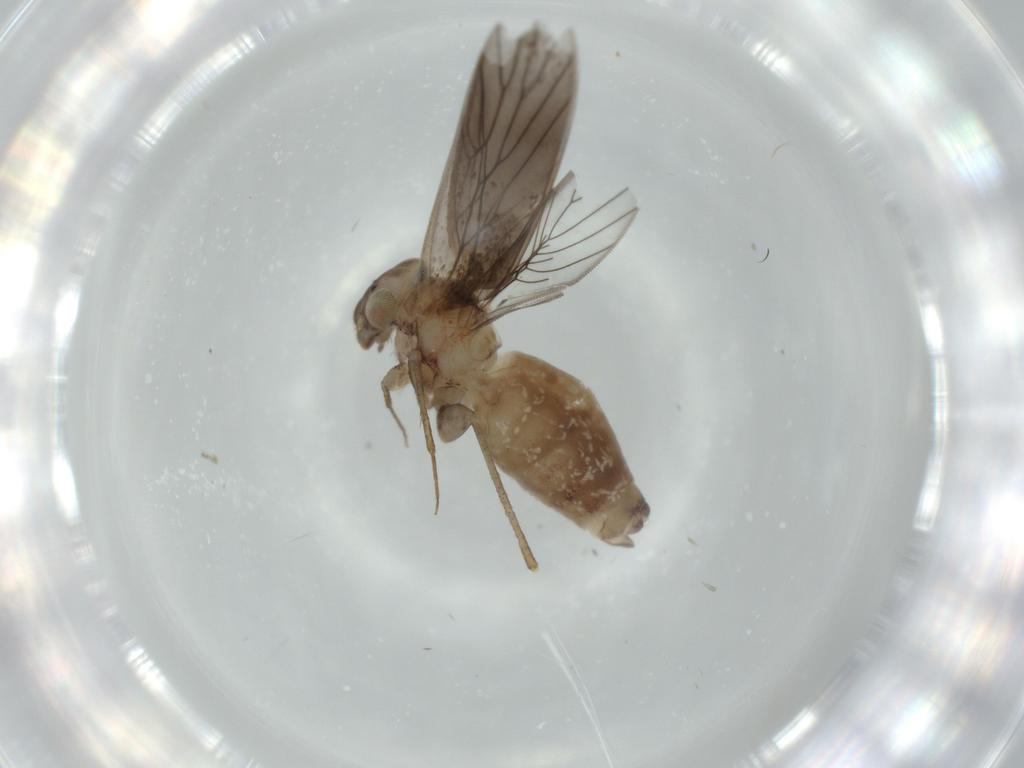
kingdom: Animalia
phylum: Arthropoda
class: Insecta
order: Psocodea
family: Lepidopsocidae
